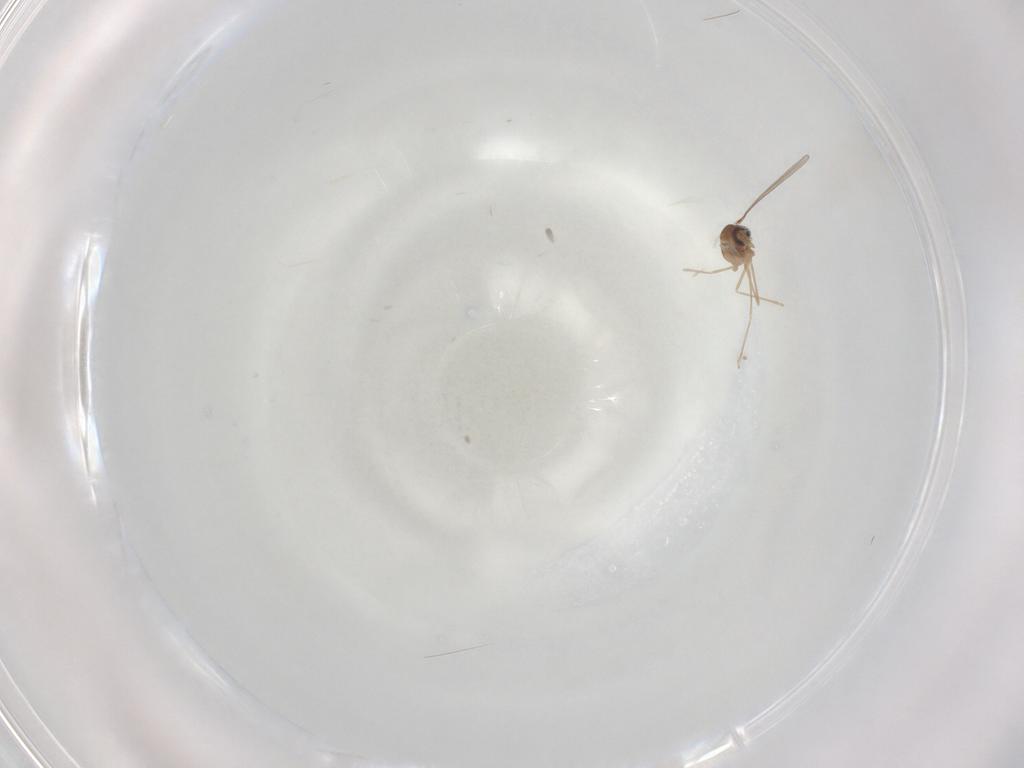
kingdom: Animalia
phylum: Arthropoda
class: Insecta
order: Diptera
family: Cecidomyiidae
